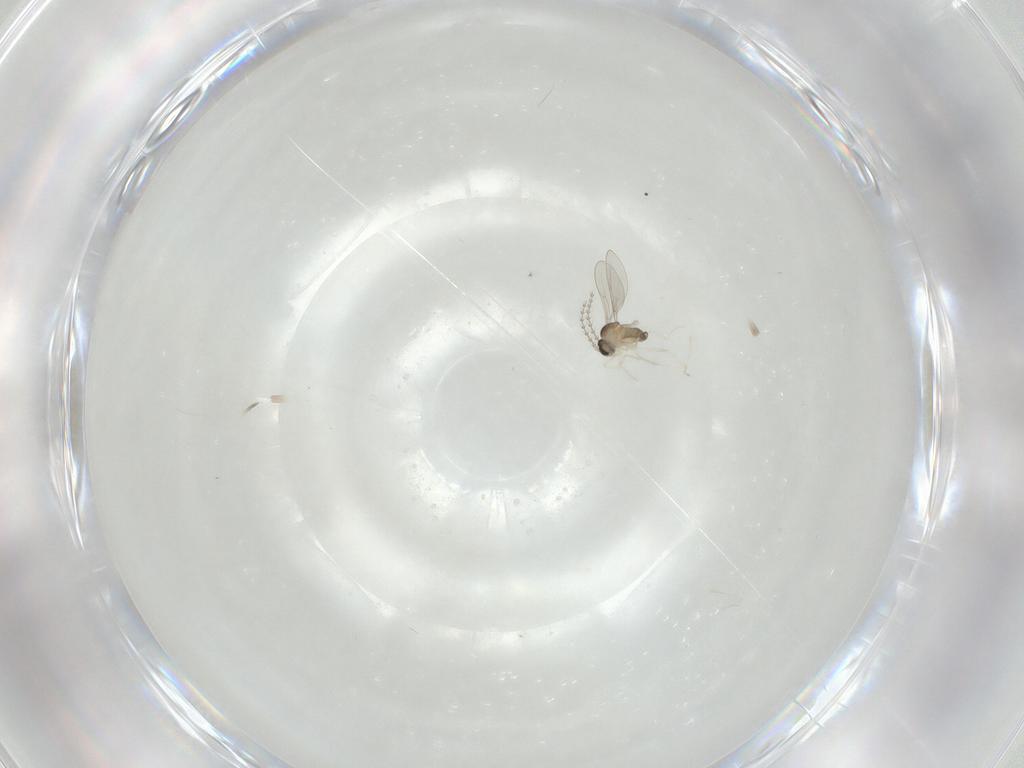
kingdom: Animalia
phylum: Arthropoda
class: Insecta
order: Diptera
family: Cecidomyiidae
